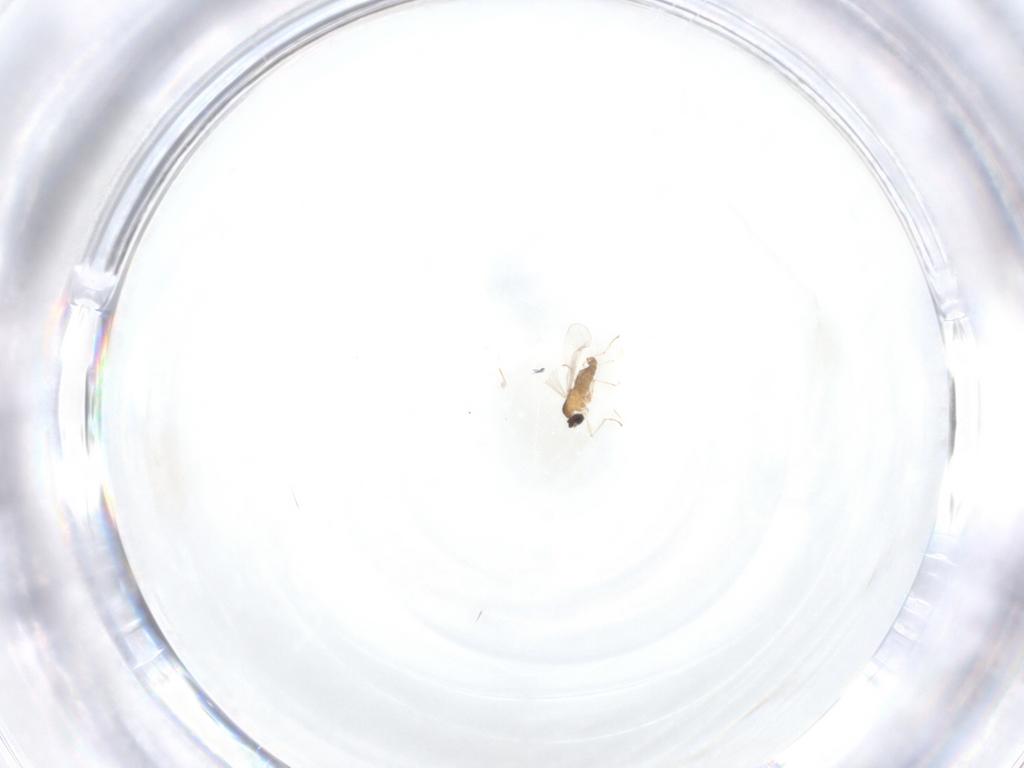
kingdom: Animalia
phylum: Arthropoda
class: Insecta
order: Diptera
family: Cecidomyiidae
